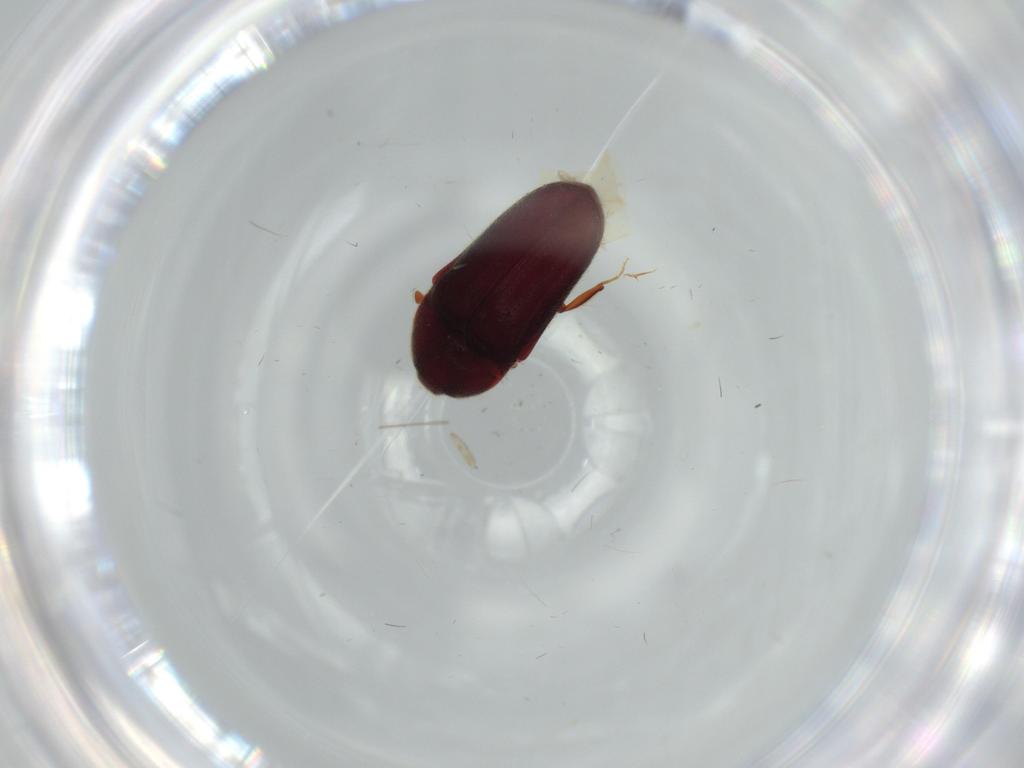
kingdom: Animalia
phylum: Arthropoda
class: Insecta
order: Coleoptera
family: Throscidae
